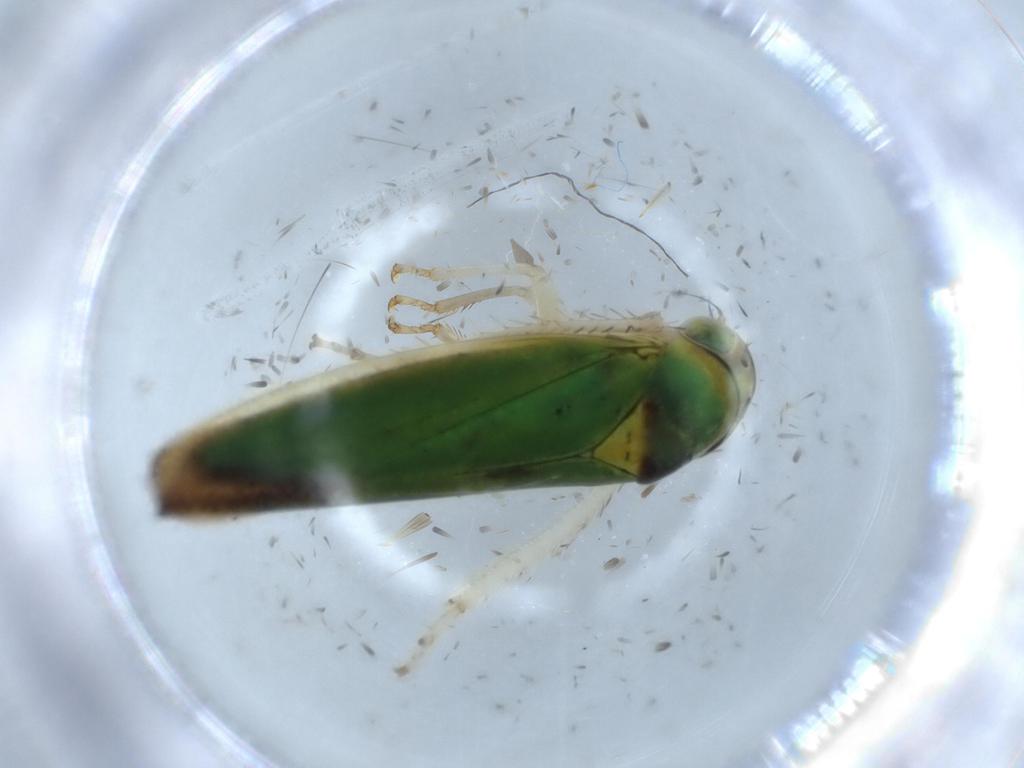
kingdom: Animalia
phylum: Arthropoda
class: Insecta
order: Hemiptera
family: Cicadellidae
